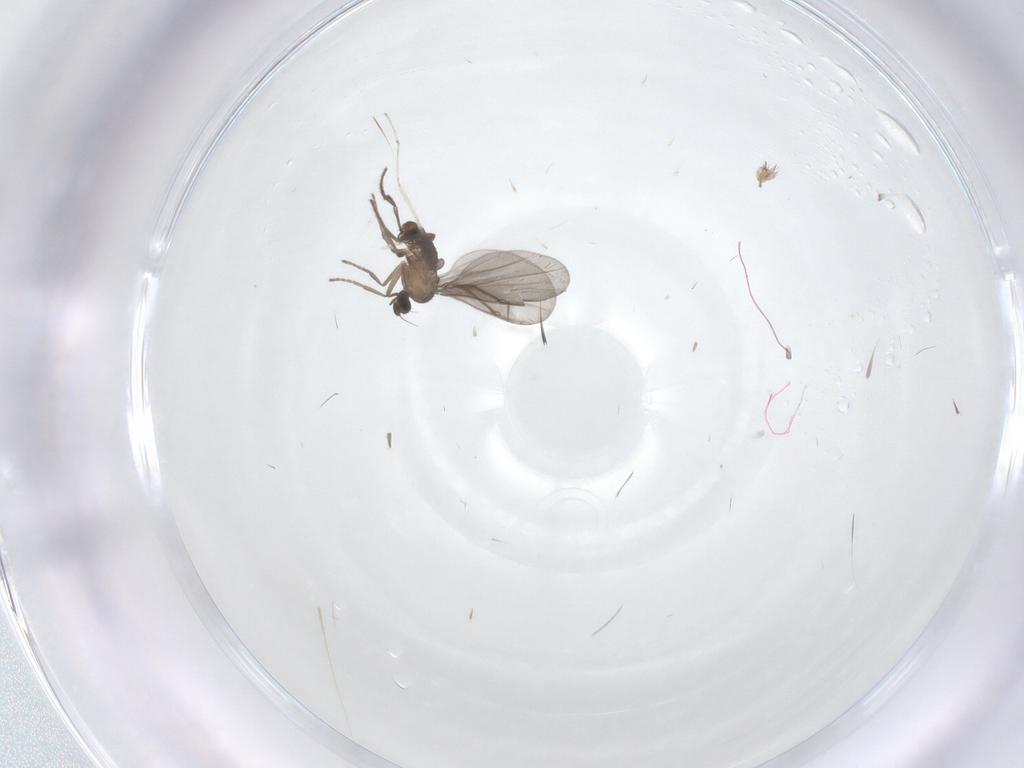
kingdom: Animalia
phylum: Arthropoda
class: Insecta
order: Diptera
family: Phoridae
